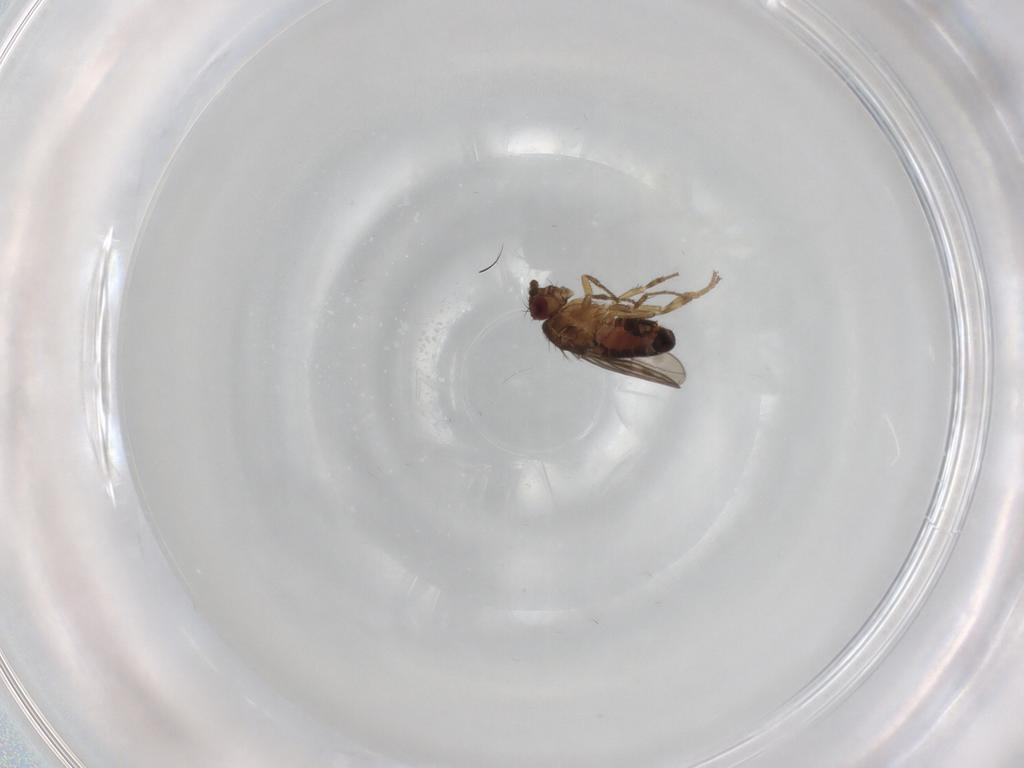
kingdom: Animalia
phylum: Arthropoda
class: Insecta
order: Diptera
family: Sphaeroceridae
